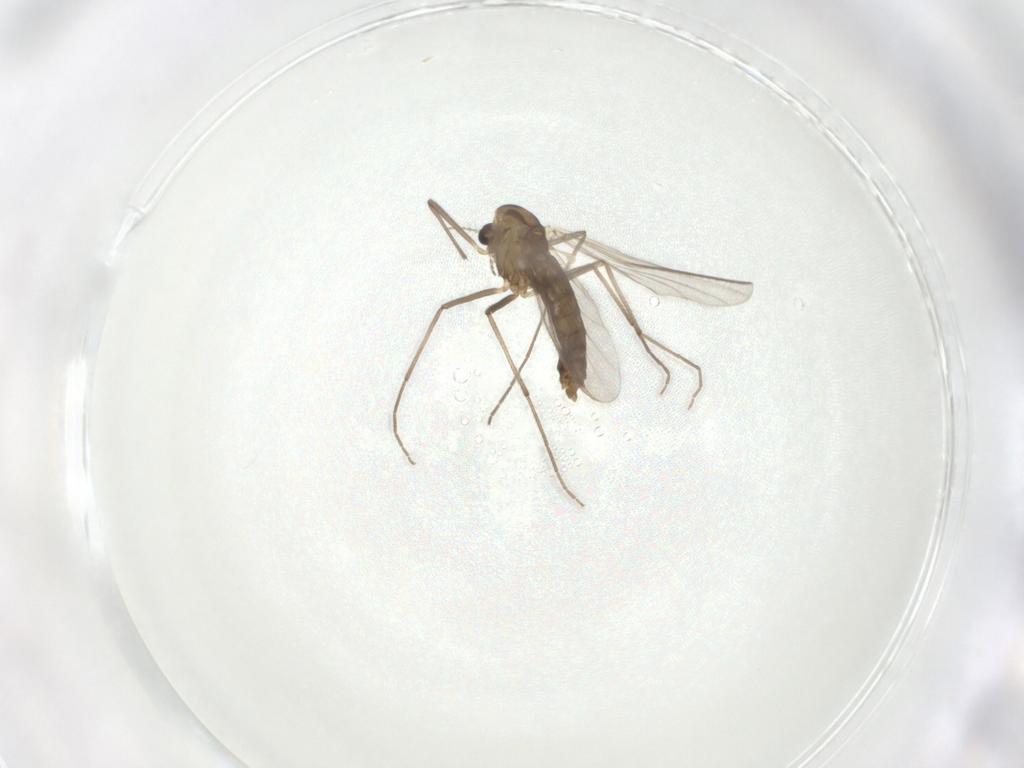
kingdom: Animalia
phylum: Arthropoda
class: Insecta
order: Diptera
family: Chironomidae
